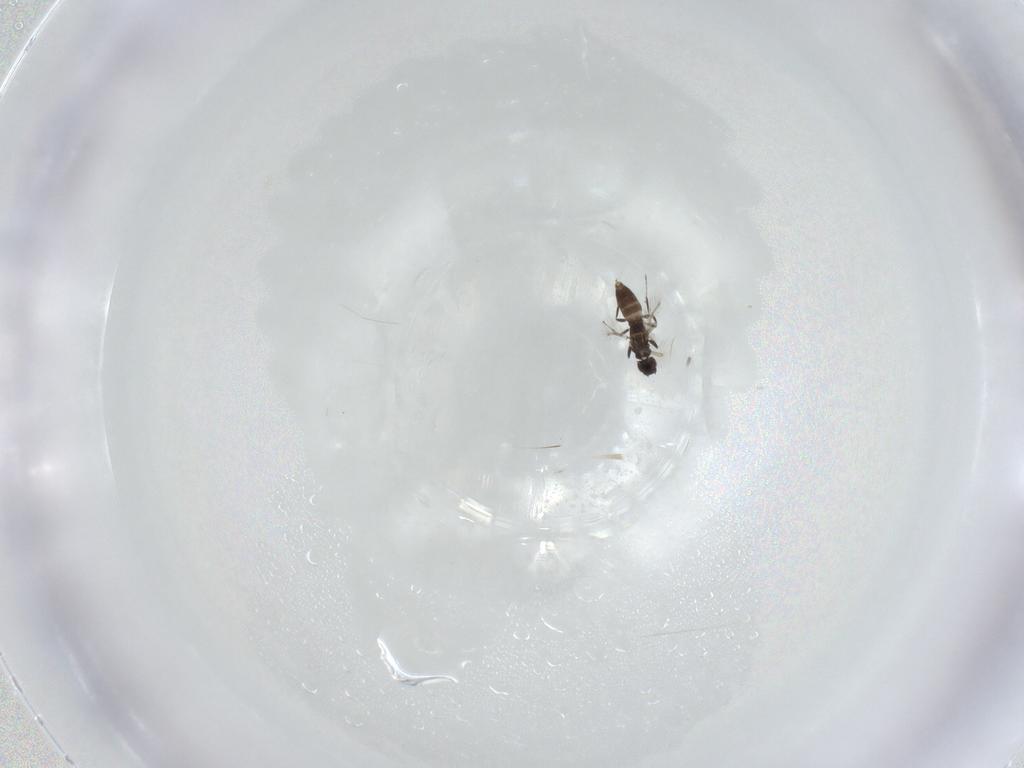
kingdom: Animalia
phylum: Arthropoda
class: Insecta
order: Hymenoptera
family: Mymaridae
